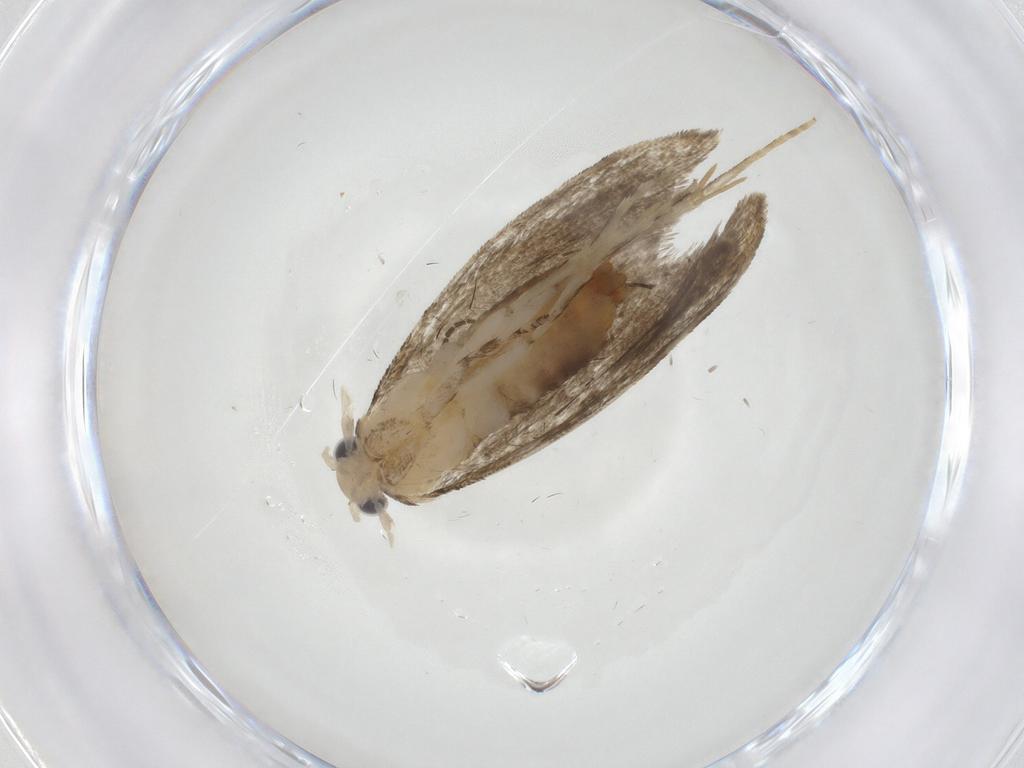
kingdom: Animalia
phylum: Arthropoda
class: Insecta
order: Lepidoptera
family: Tineidae
